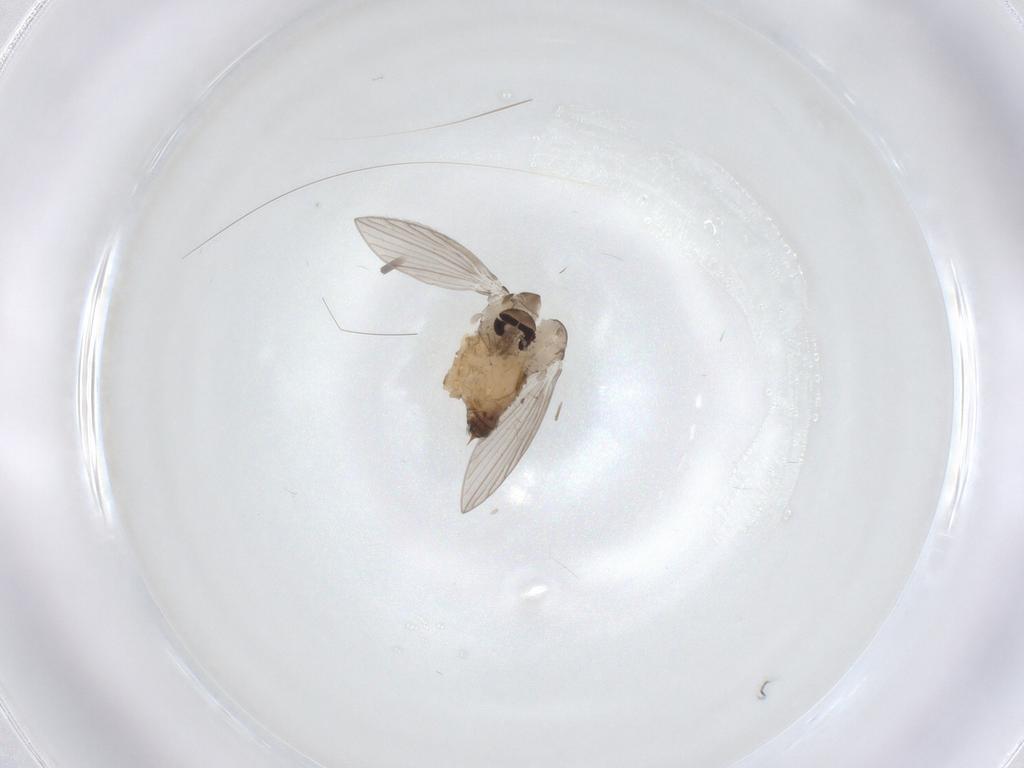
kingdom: Animalia
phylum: Arthropoda
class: Insecta
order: Diptera
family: Psychodidae
